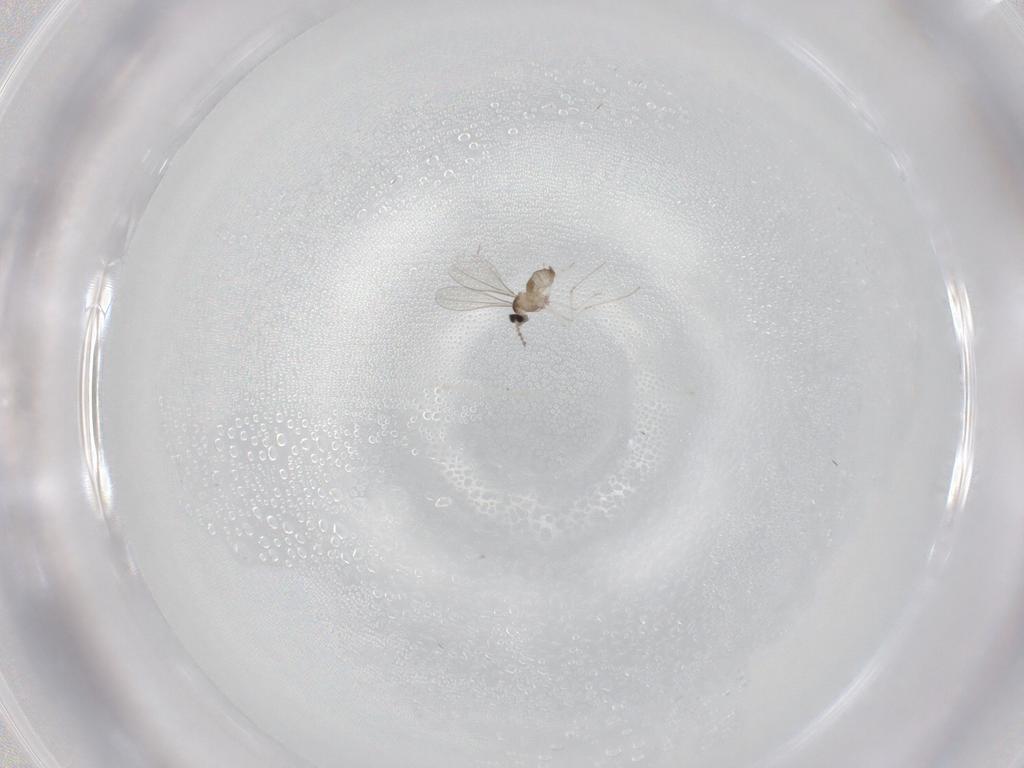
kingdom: Animalia
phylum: Arthropoda
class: Insecta
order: Diptera
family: Cecidomyiidae
